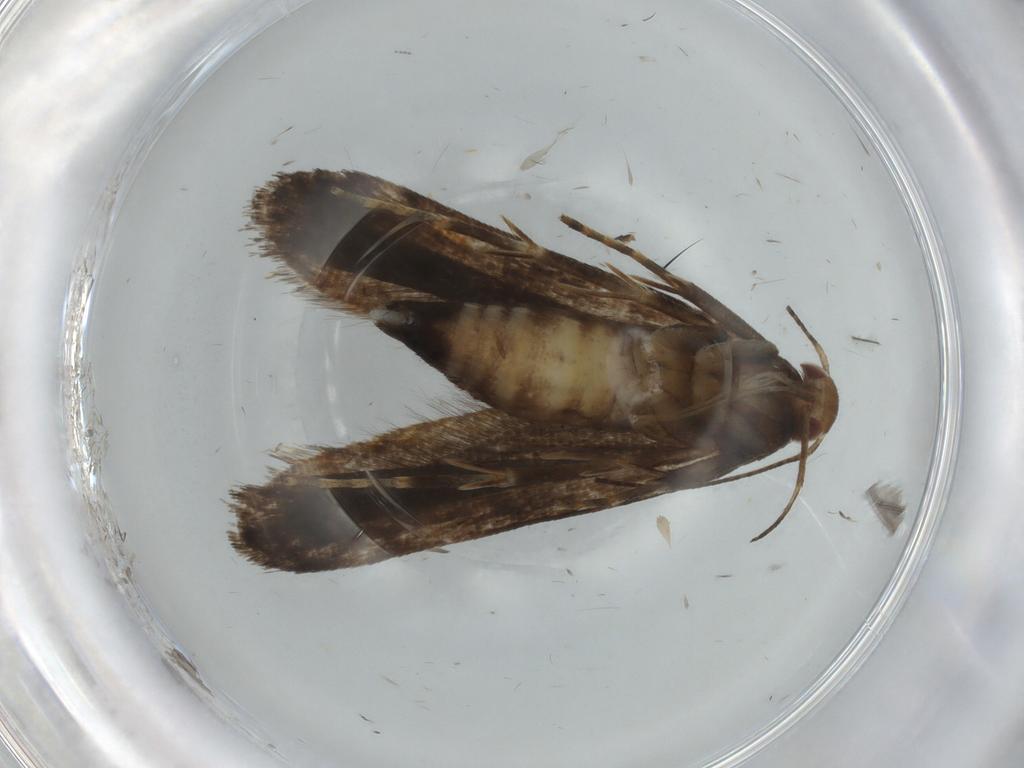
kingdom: Animalia
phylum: Arthropoda
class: Insecta
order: Lepidoptera
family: Gelechiidae
